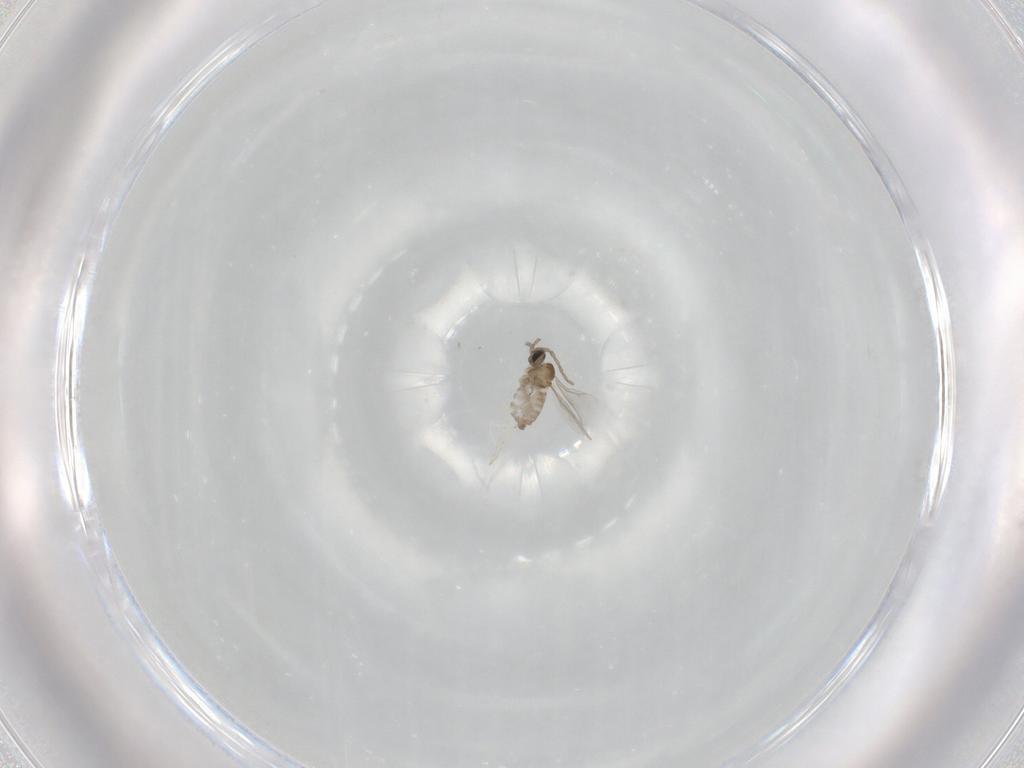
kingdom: Animalia
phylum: Arthropoda
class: Insecta
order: Diptera
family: Cecidomyiidae
